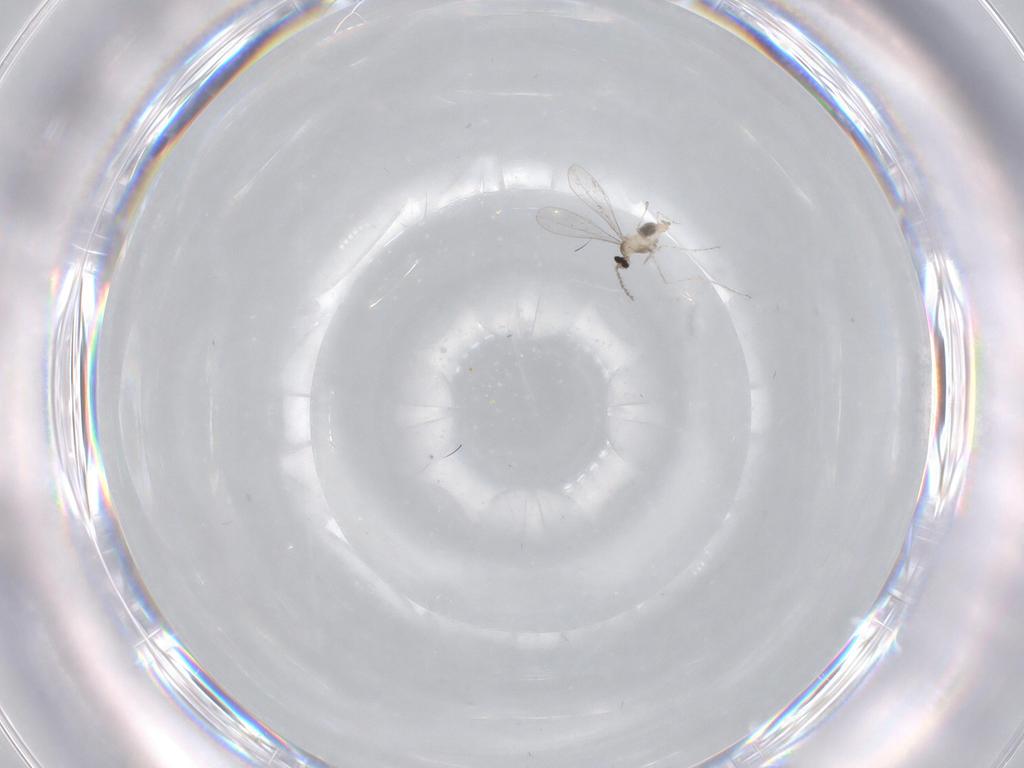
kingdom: Animalia
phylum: Arthropoda
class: Insecta
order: Diptera
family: Cecidomyiidae
